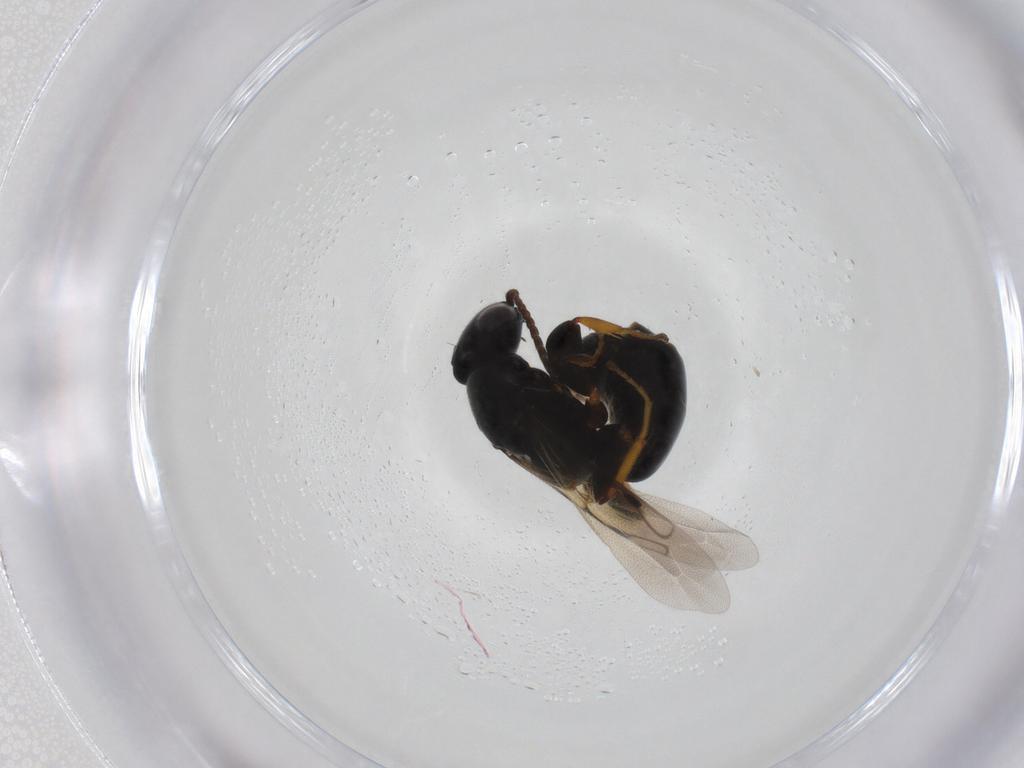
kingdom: Animalia
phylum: Arthropoda
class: Insecta
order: Hymenoptera
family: Bethylidae
